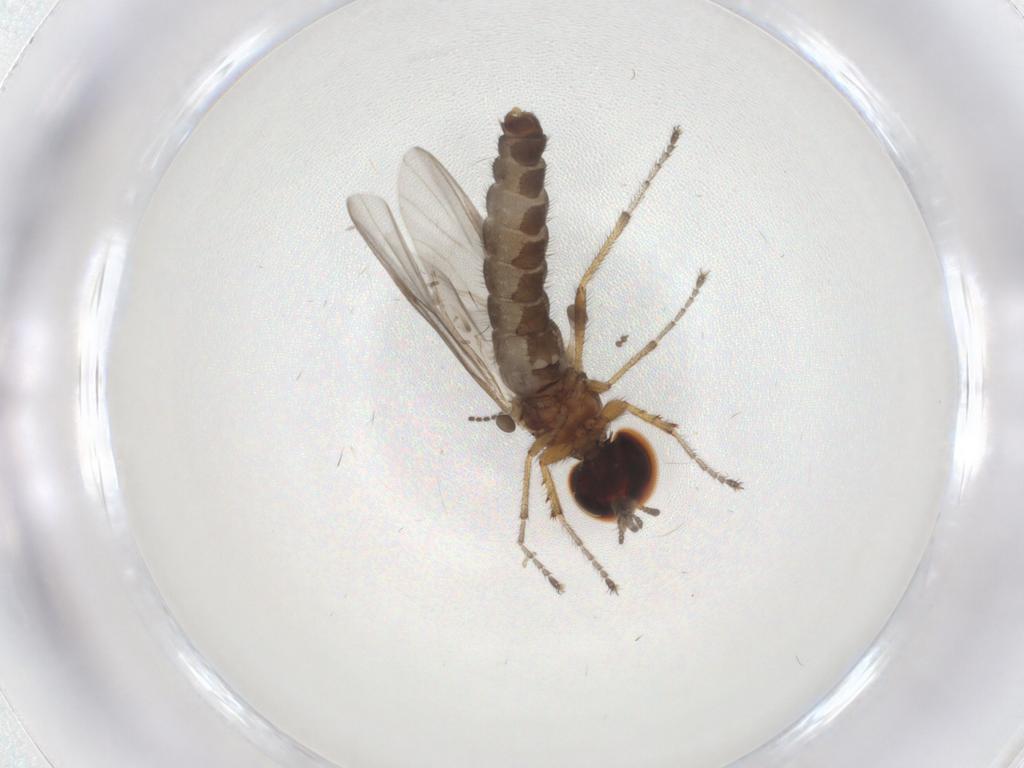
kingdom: Animalia
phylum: Arthropoda
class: Insecta
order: Diptera
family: Bibionidae
